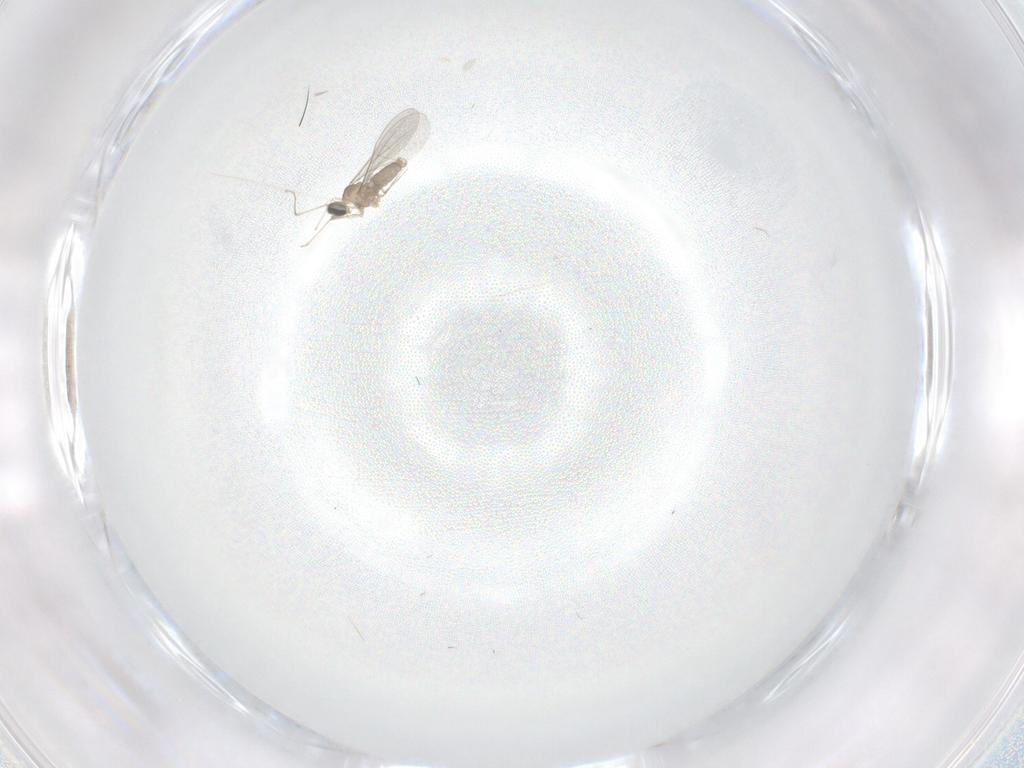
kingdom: Animalia
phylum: Arthropoda
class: Insecta
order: Diptera
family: Cecidomyiidae
